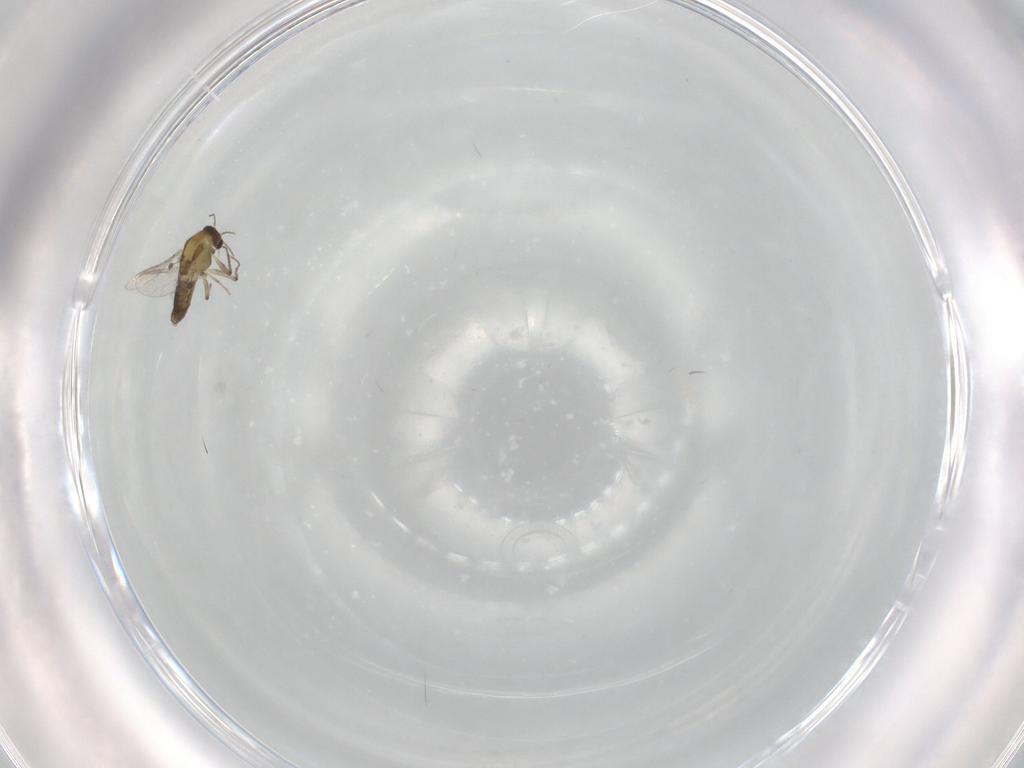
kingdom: Animalia
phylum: Arthropoda
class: Insecta
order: Diptera
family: Chironomidae
